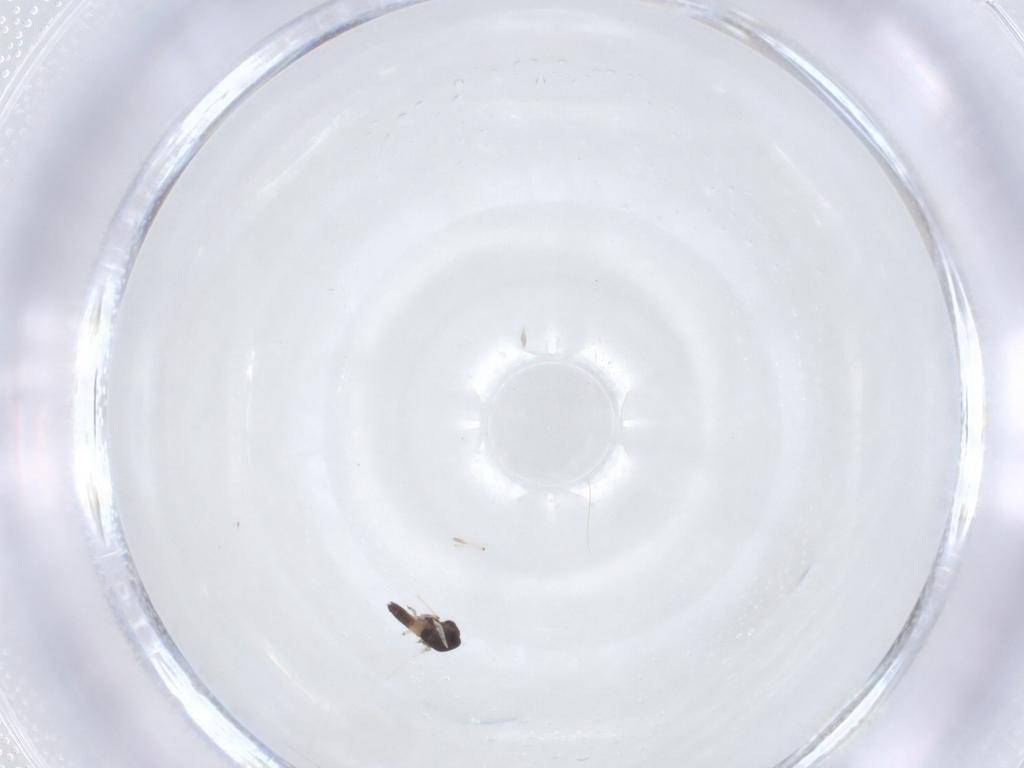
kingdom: Animalia
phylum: Arthropoda
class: Insecta
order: Diptera
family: Chironomidae
